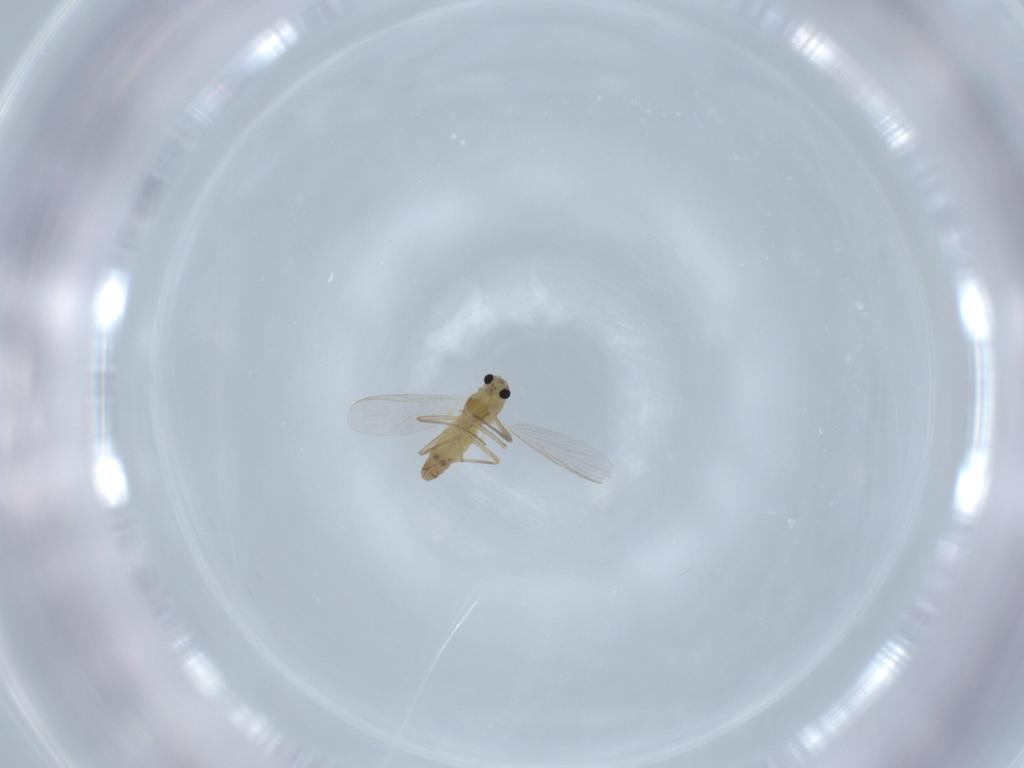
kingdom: Animalia
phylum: Arthropoda
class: Insecta
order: Diptera
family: Chironomidae
